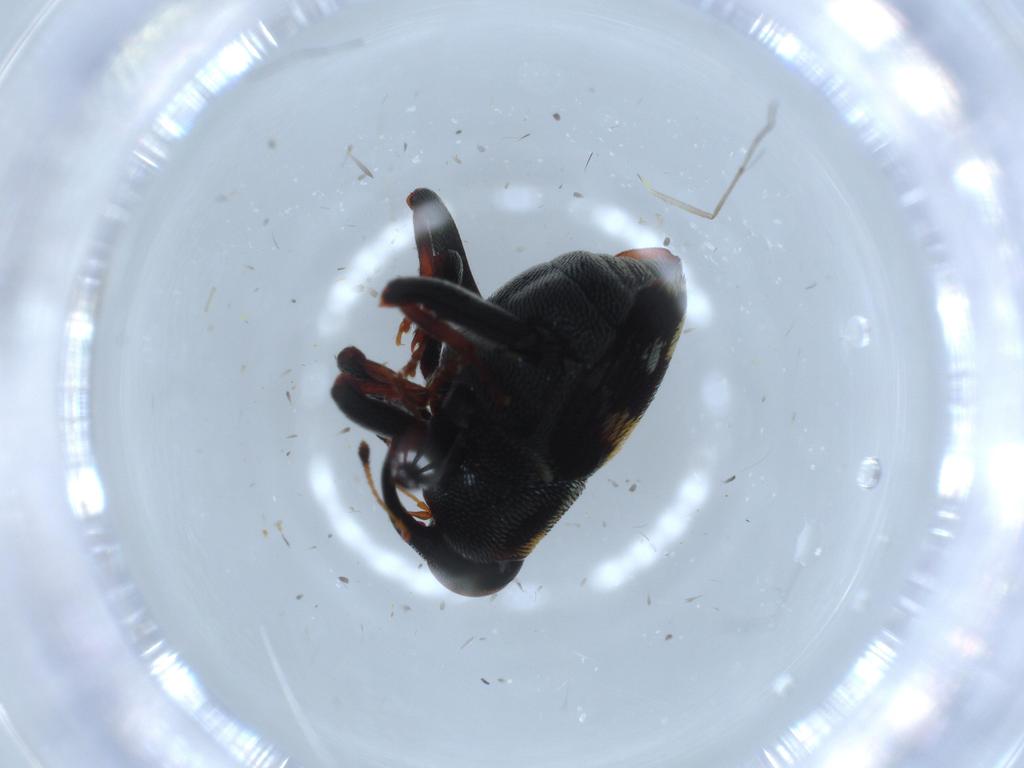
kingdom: Animalia
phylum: Arthropoda
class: Insecta
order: Coleoptera
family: Curculionidae
